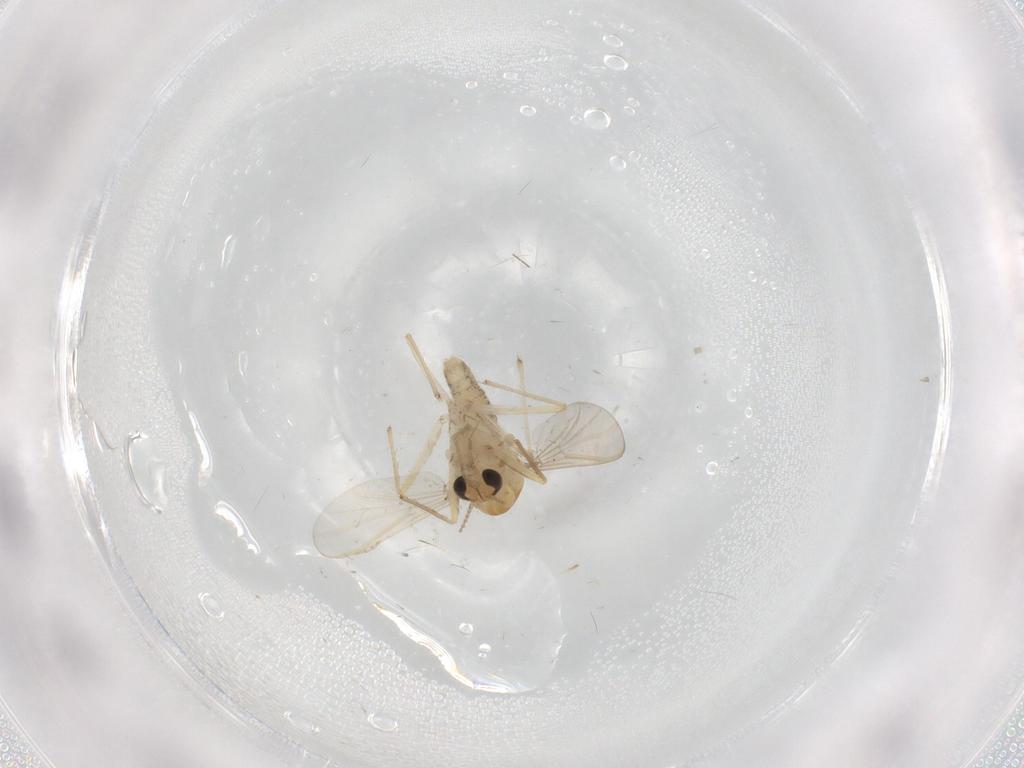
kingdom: Animalia
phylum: Arthropoda
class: Insecta
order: Diptera
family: Chironomidae
